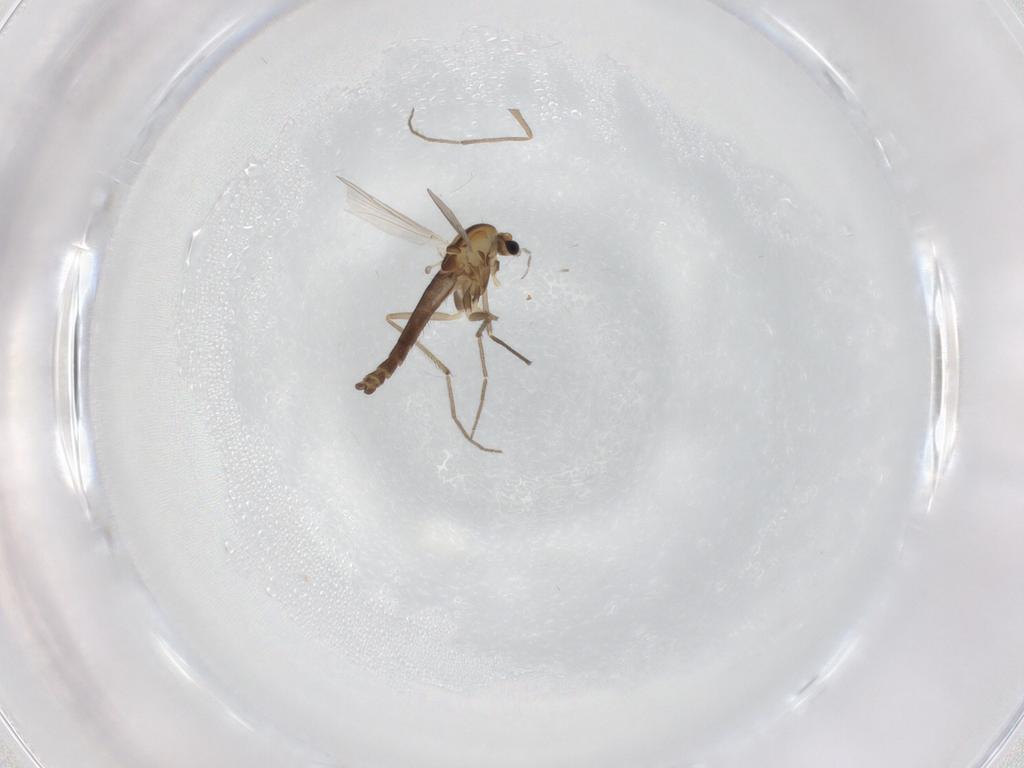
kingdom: Animalia
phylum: Arthropoda
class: Insecta
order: Diptera
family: Chironomidae
